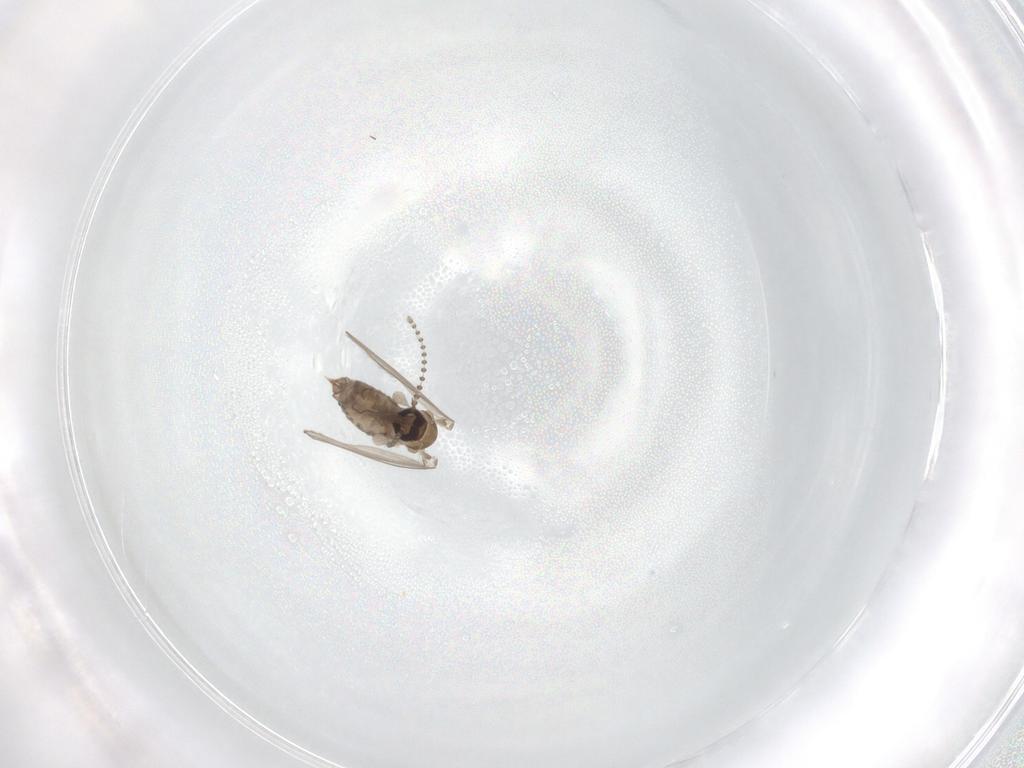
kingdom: Animalia
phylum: Arthropoda
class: Insecta
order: Diptera
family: Psychodidae
